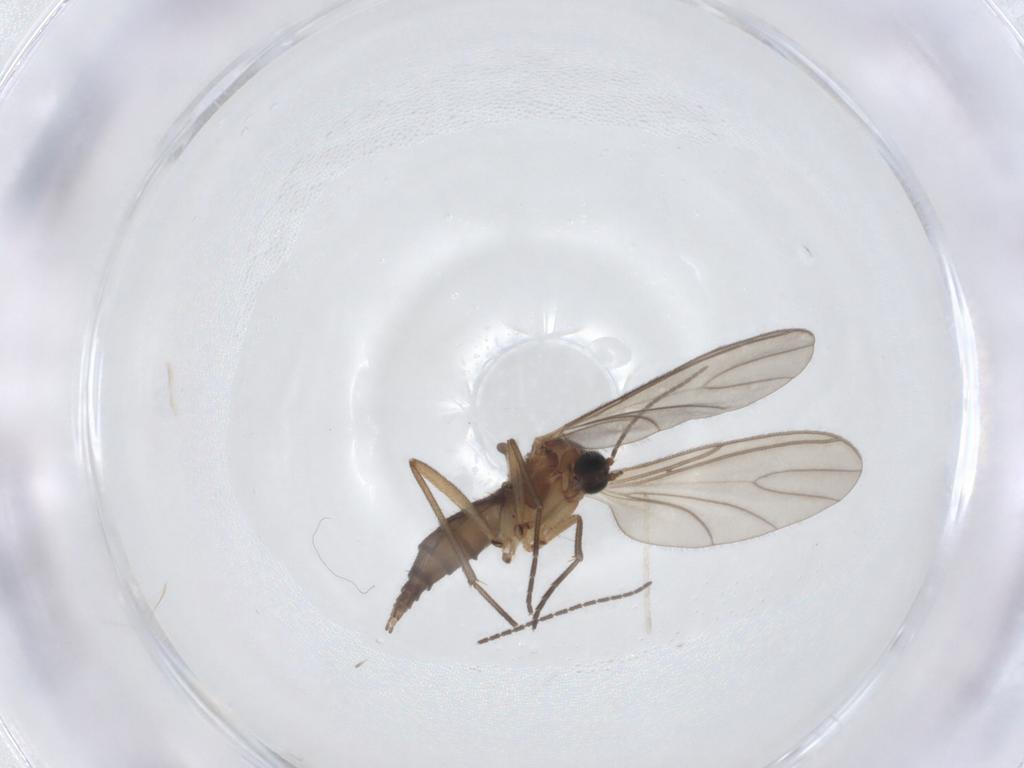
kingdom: Animalia
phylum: Arthropoda
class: Insecta
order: Diptera
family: Sciaridae
